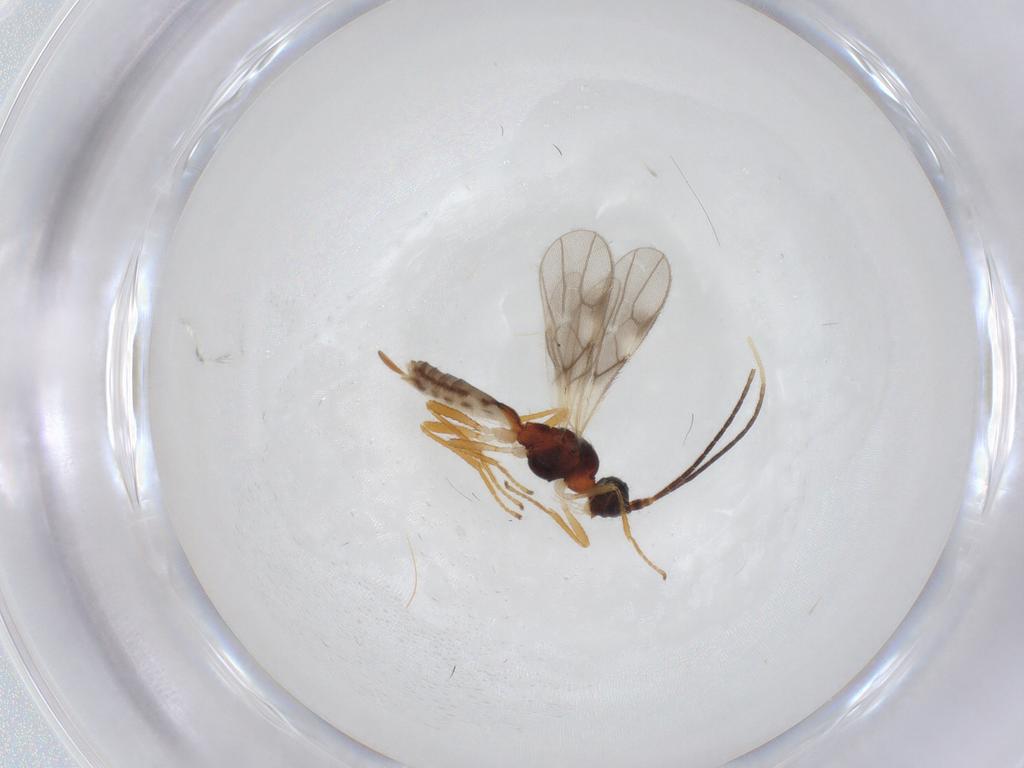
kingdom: Animalia
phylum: Arthropoda
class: Insecta
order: Hymenoptera
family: Braconidae
